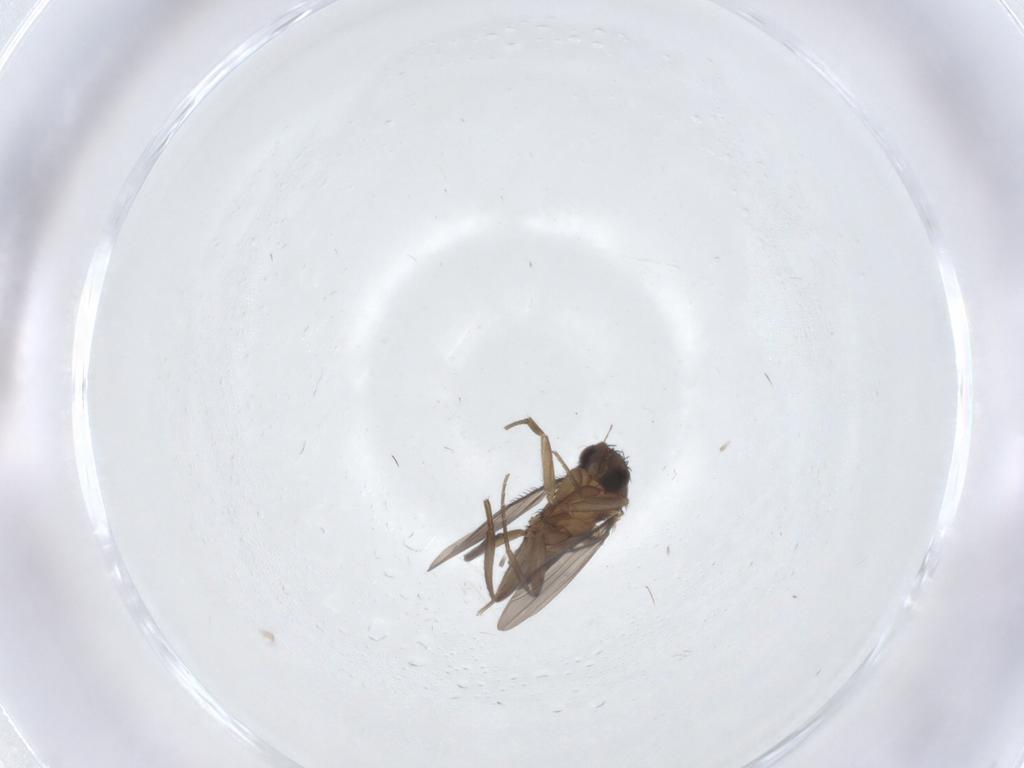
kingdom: Animalia
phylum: Arthropoda
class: Insecta
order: Diptera
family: Phoridae
